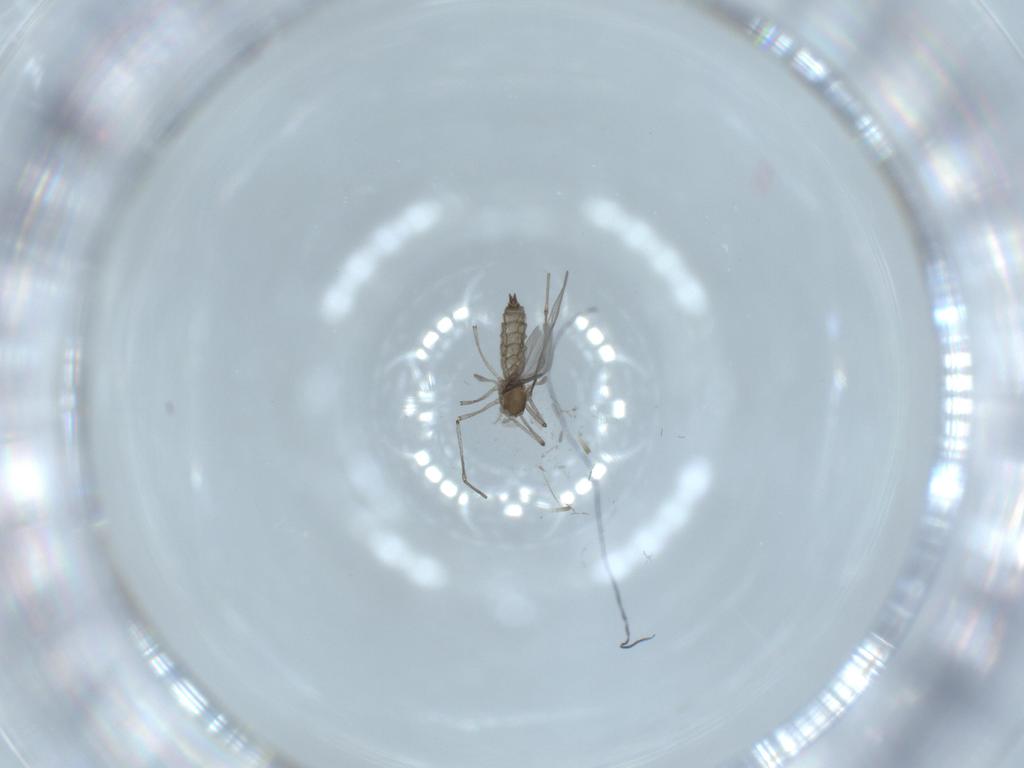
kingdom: Animalia
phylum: Arthropoda
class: Insecta
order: Diptera
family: Cecidomyiidae
